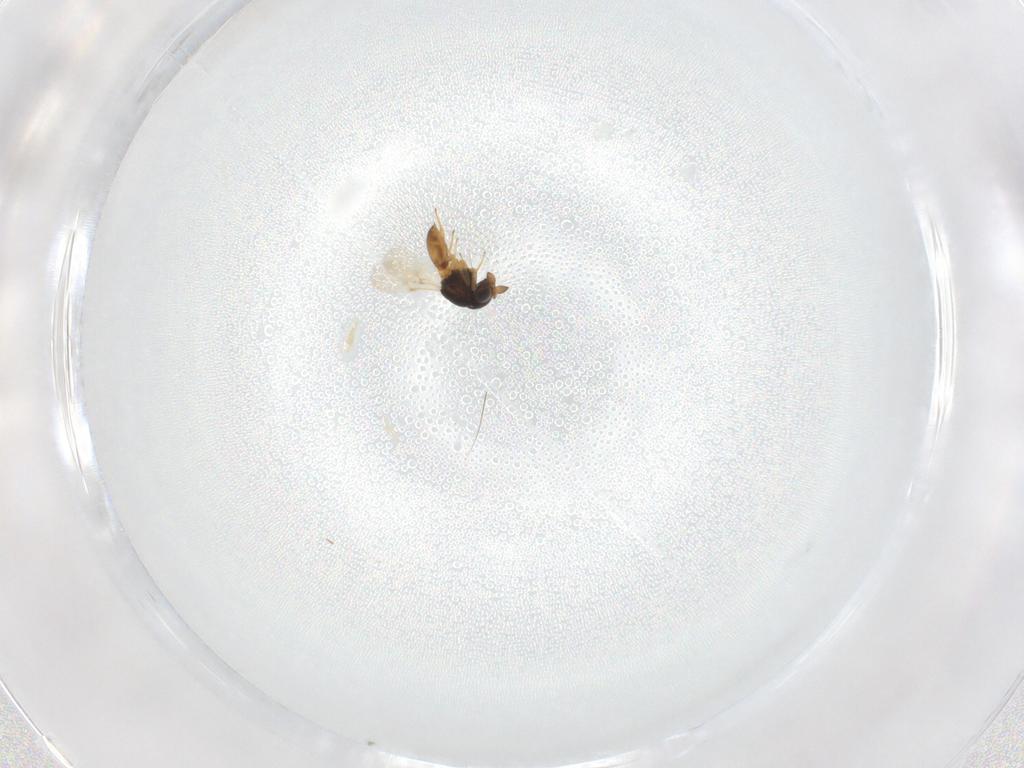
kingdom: Animalia
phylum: Arthropoda
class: Insecta
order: Hymenoptera
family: Scelionidae
